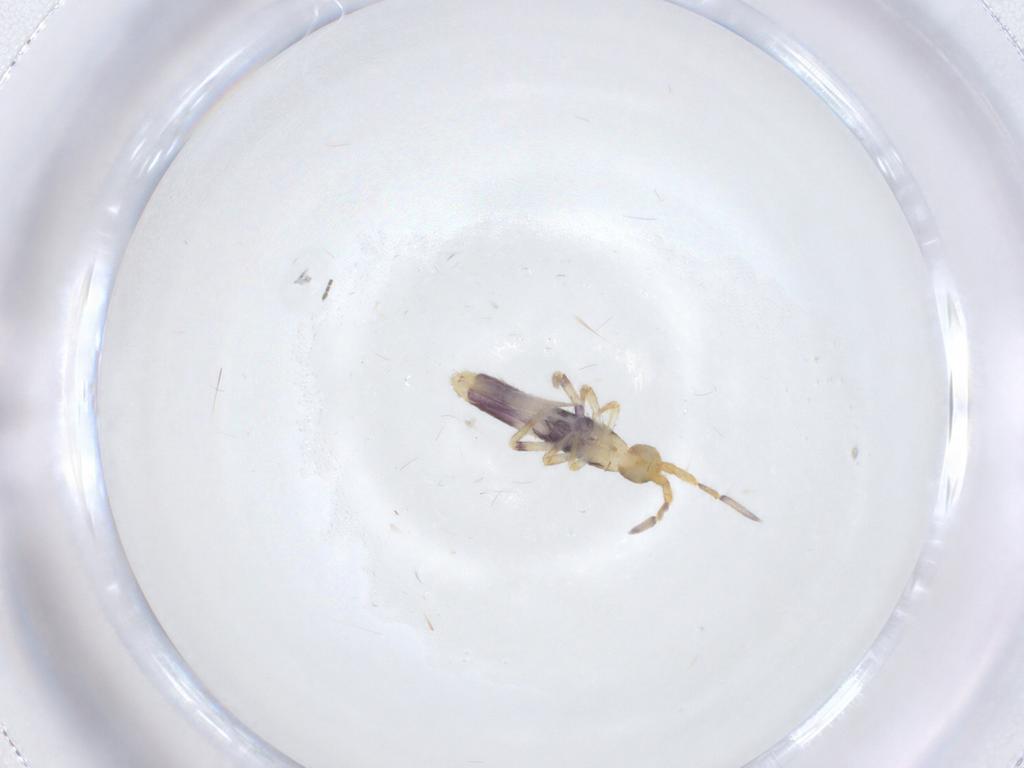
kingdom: Animalia
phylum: Arthropoda
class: Collembola
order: Entomobryomorpha
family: Entomobryidae
